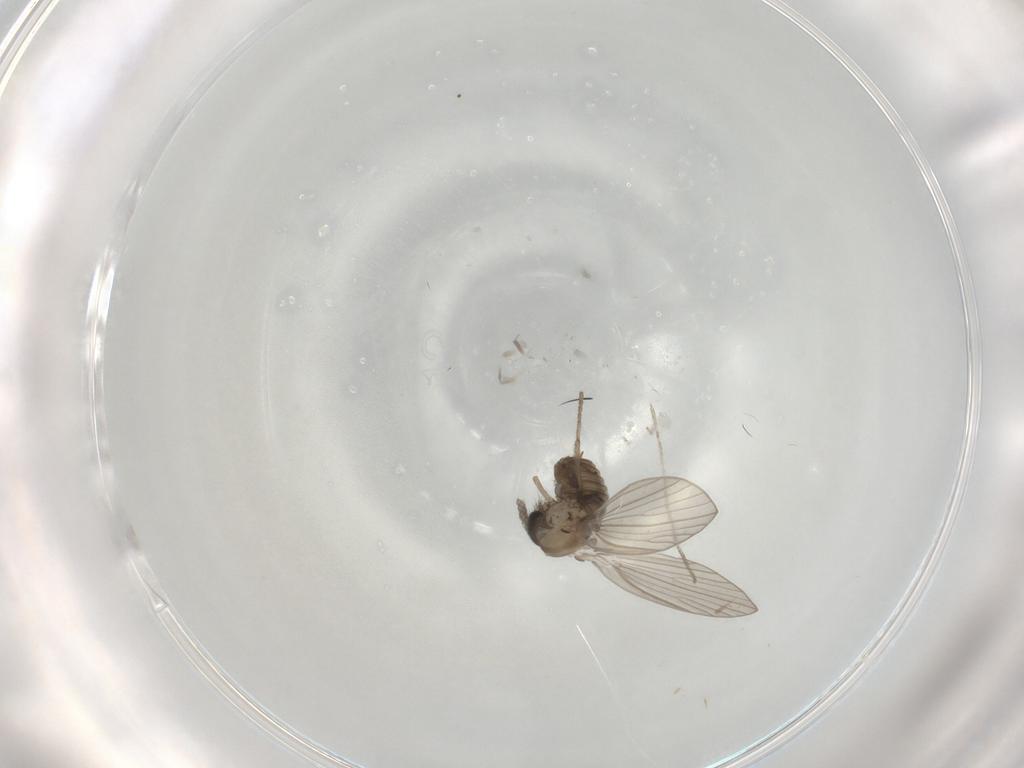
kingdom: Animalia
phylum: Arthropoda
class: Insecta
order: Diptera
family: Psychodidae
